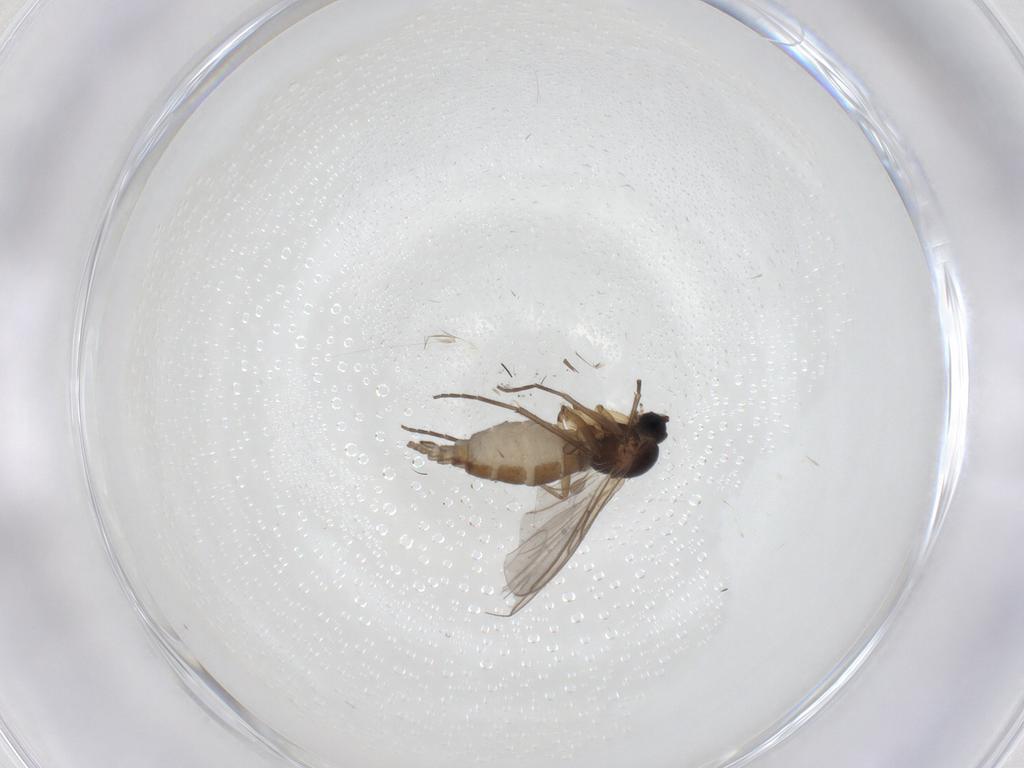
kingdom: Animalia
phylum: Arthropoda
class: Insecta
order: Diptera
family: Sciaridae
